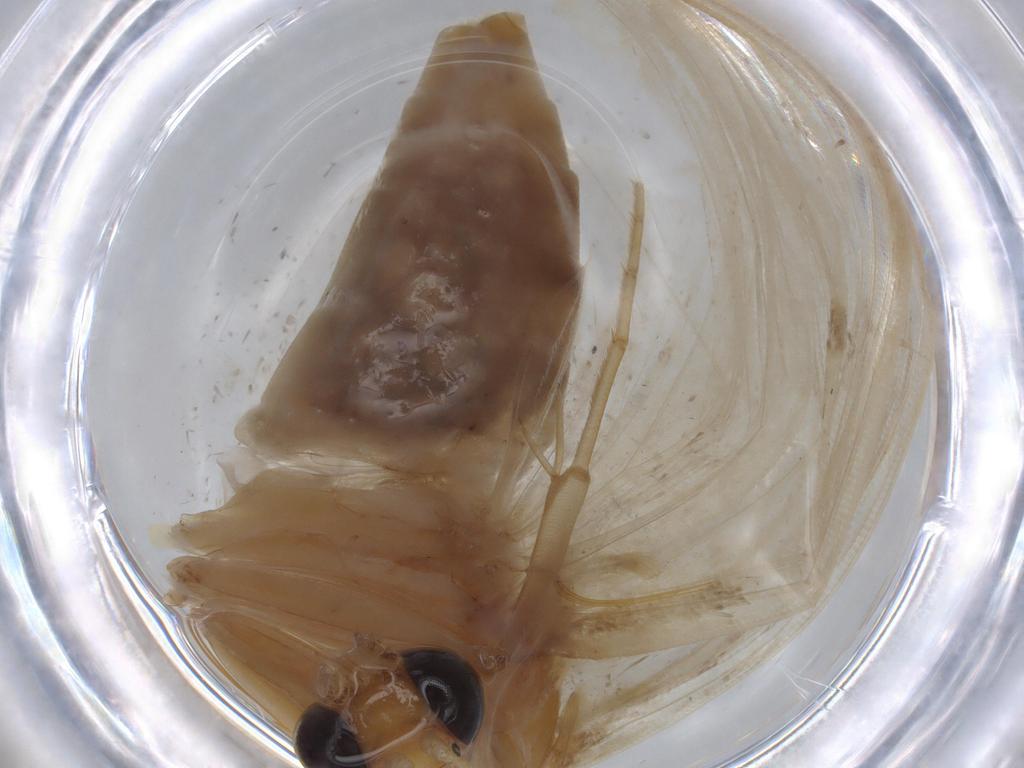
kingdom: Animalia
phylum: Arthropoda
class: Insecta
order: Lepidoptera
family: Crambidae
